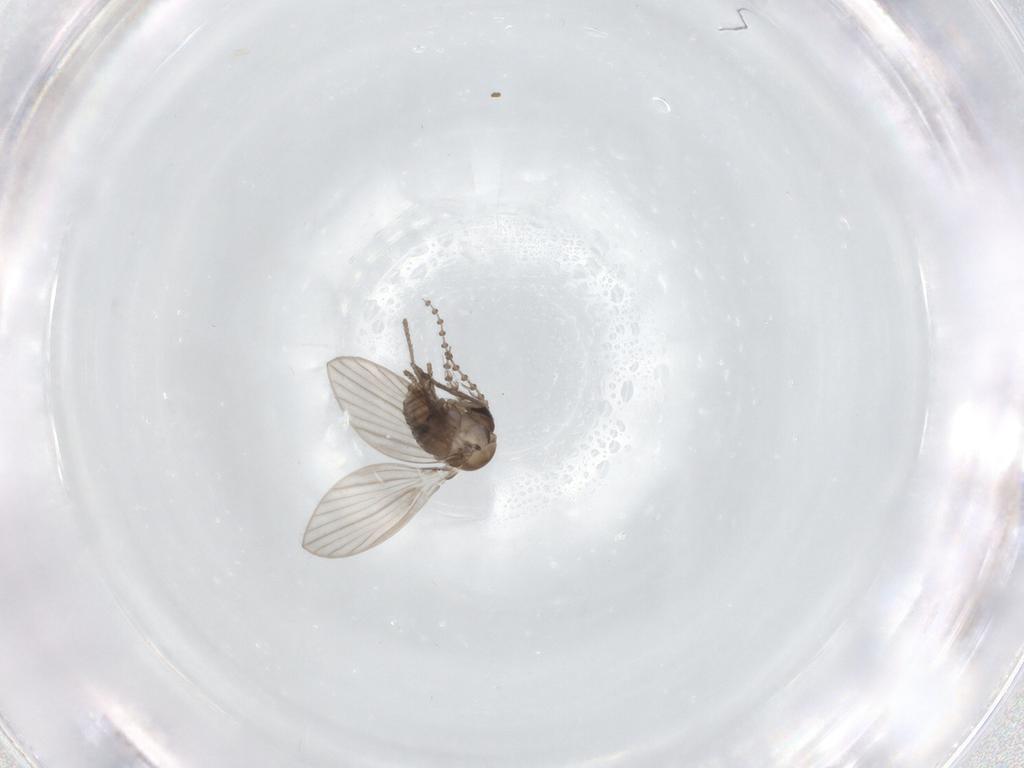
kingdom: Animalia
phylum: Arthropoda
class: Insecta
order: Diptera
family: Psychodidae
